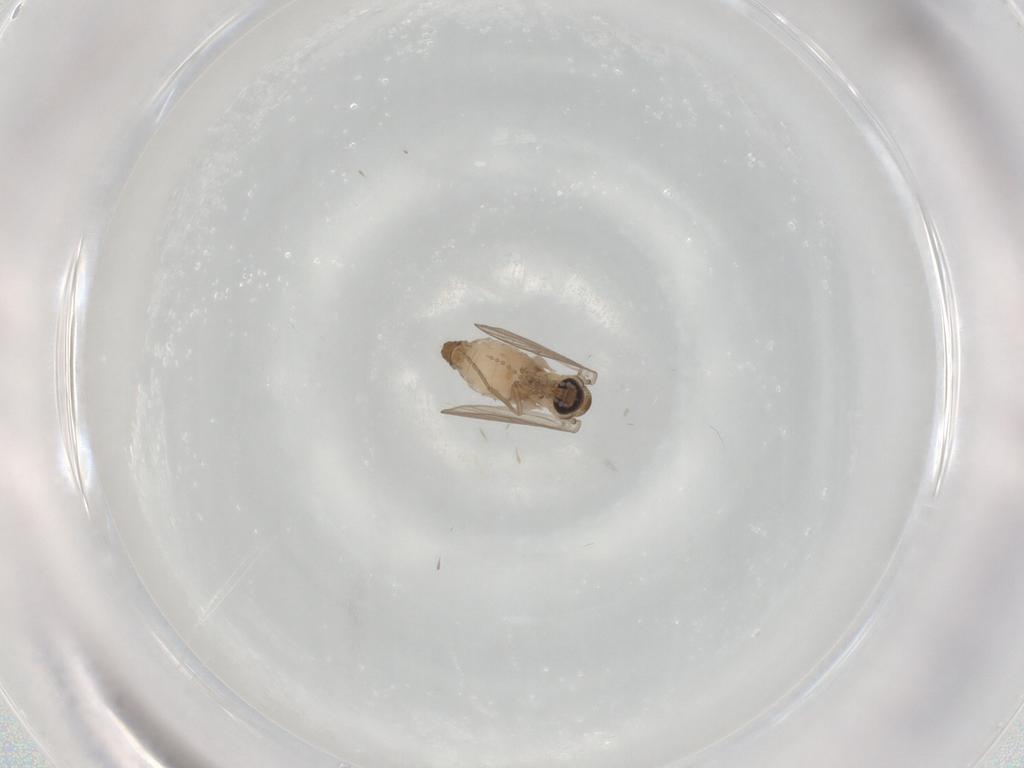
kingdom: Animalia
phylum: Arthropoda
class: Insecta
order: Diptera
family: Psychodidae
